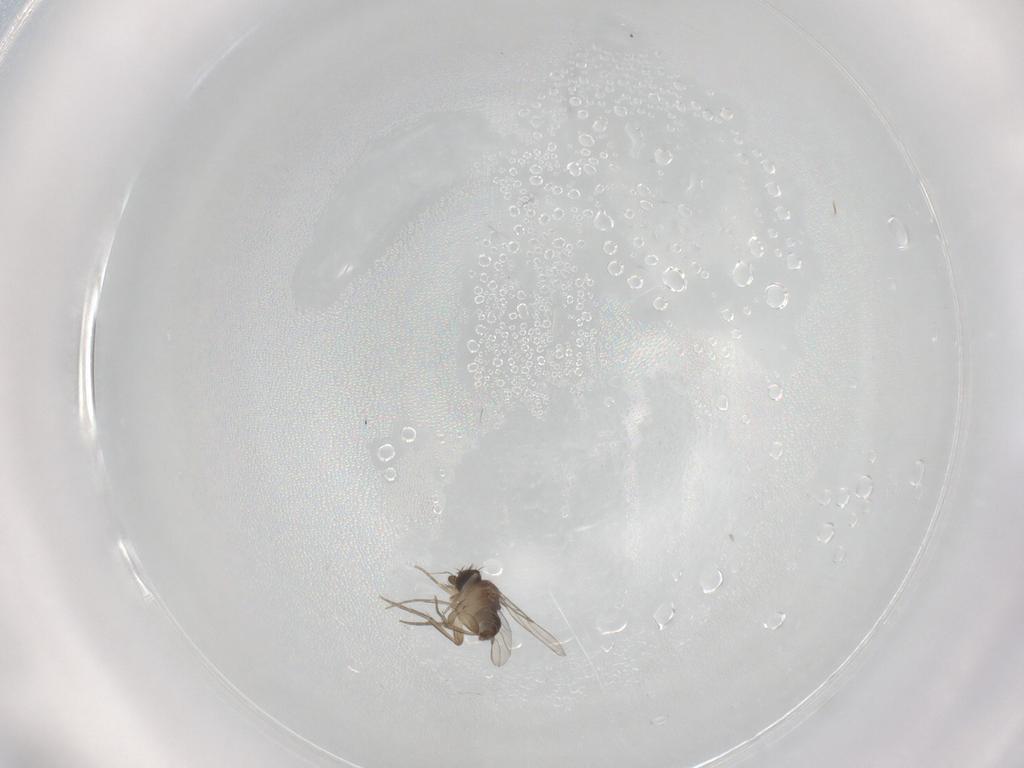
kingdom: Animalia
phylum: Arthropoda
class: Insecta
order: Diptera
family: Phoridae
